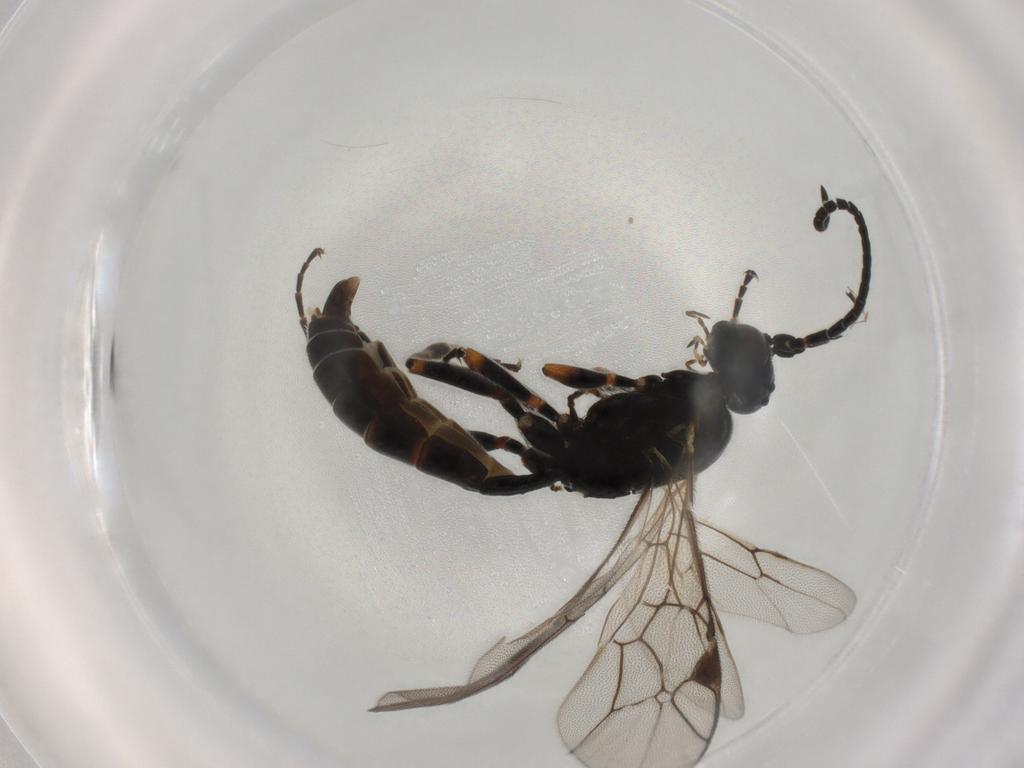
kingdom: Animalia
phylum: Arthropoda
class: Insecta
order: Hymenoptera
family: Ichneumonidae
